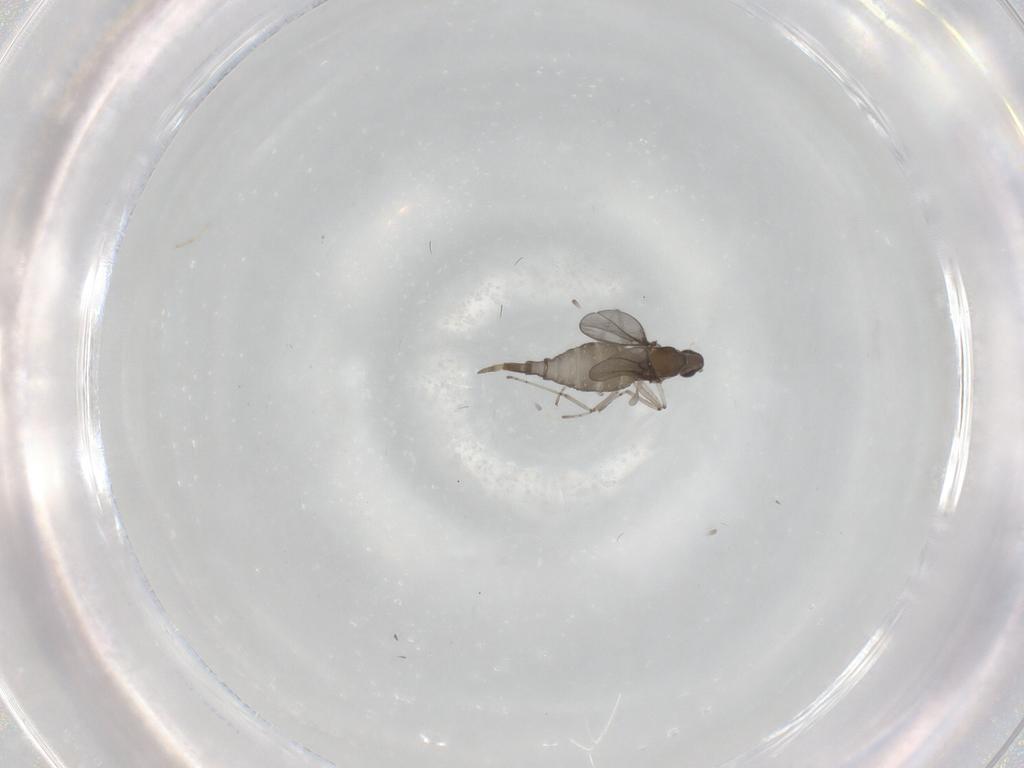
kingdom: Animalia
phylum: Arthropoda
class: Insecta
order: Diptera
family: Cecidomyiidae
